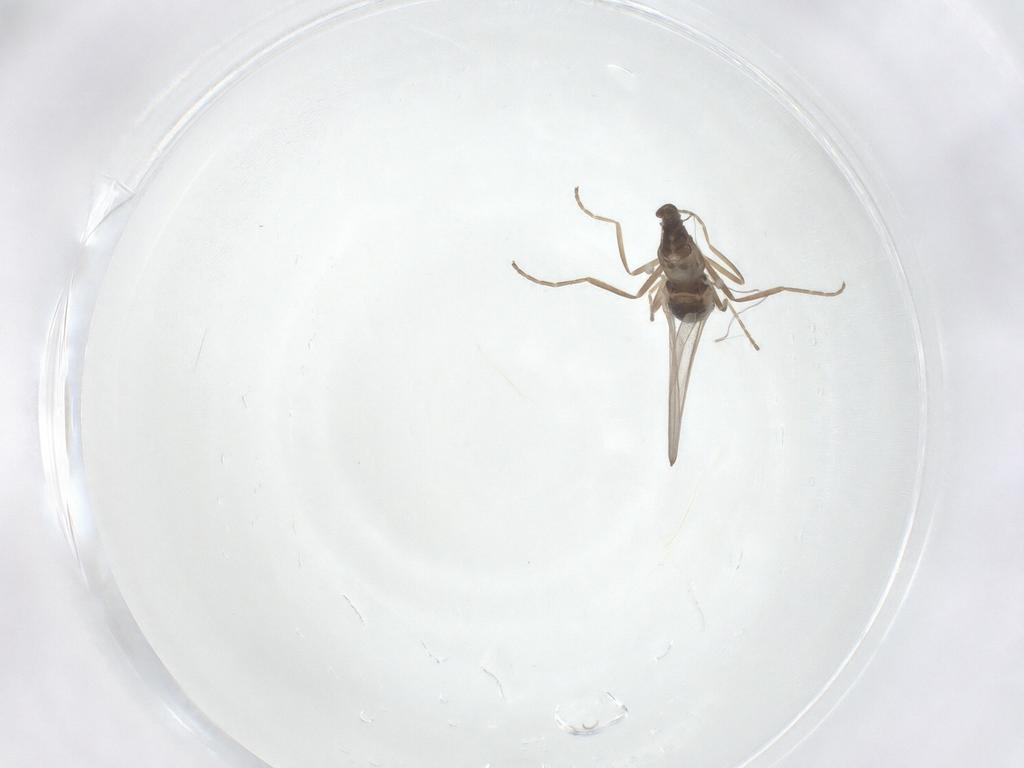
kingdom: Animalia
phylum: Arthropoda
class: Insecta
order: Diptera
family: Cecidomyiidae
